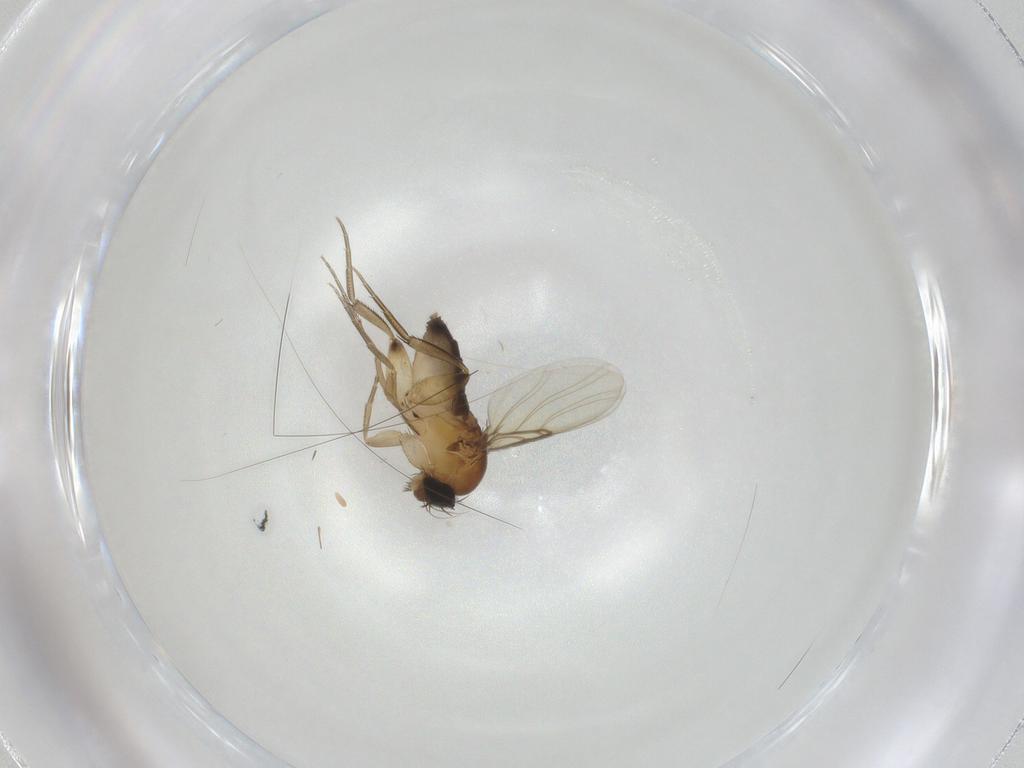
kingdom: Animalia
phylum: Arthropoda
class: Insecta
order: Diptera
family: Phoridae
